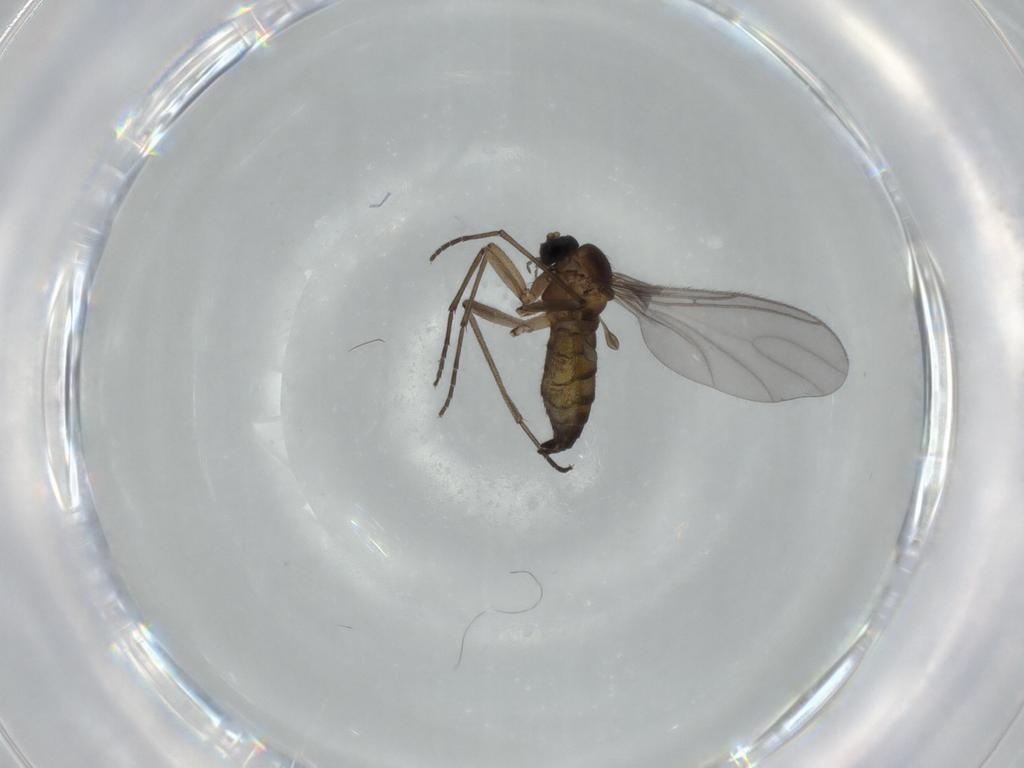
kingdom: Animalia
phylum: Arthropoda
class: Insecta
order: Diptera
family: Sciaridae
